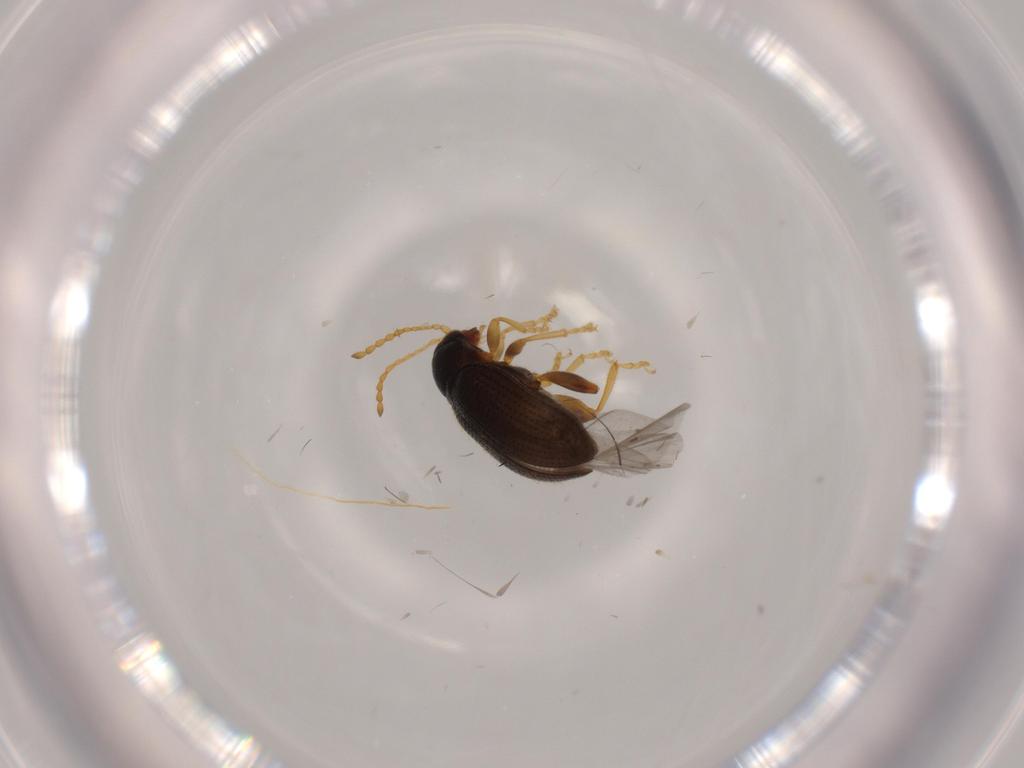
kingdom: Animalia
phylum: Arthropoda
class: Insecta
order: Coleoptera
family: Chrysomelidae
